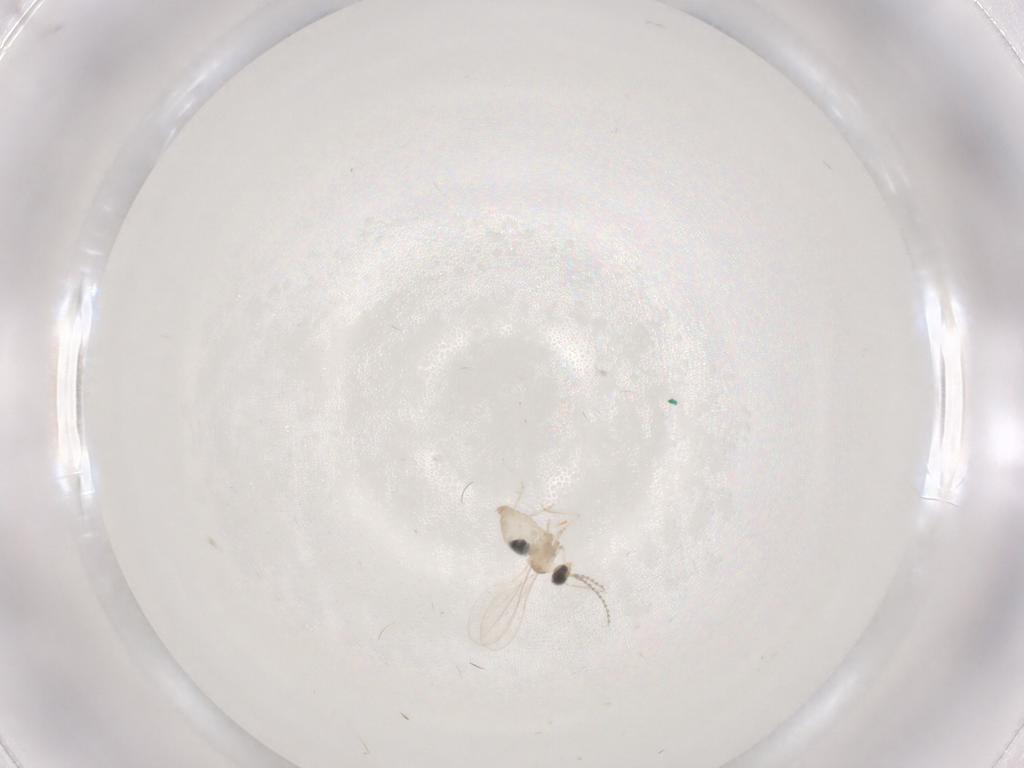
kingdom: Animalia
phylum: Arthropoda
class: Insecta
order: Diptera
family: Cecidomyiidae
